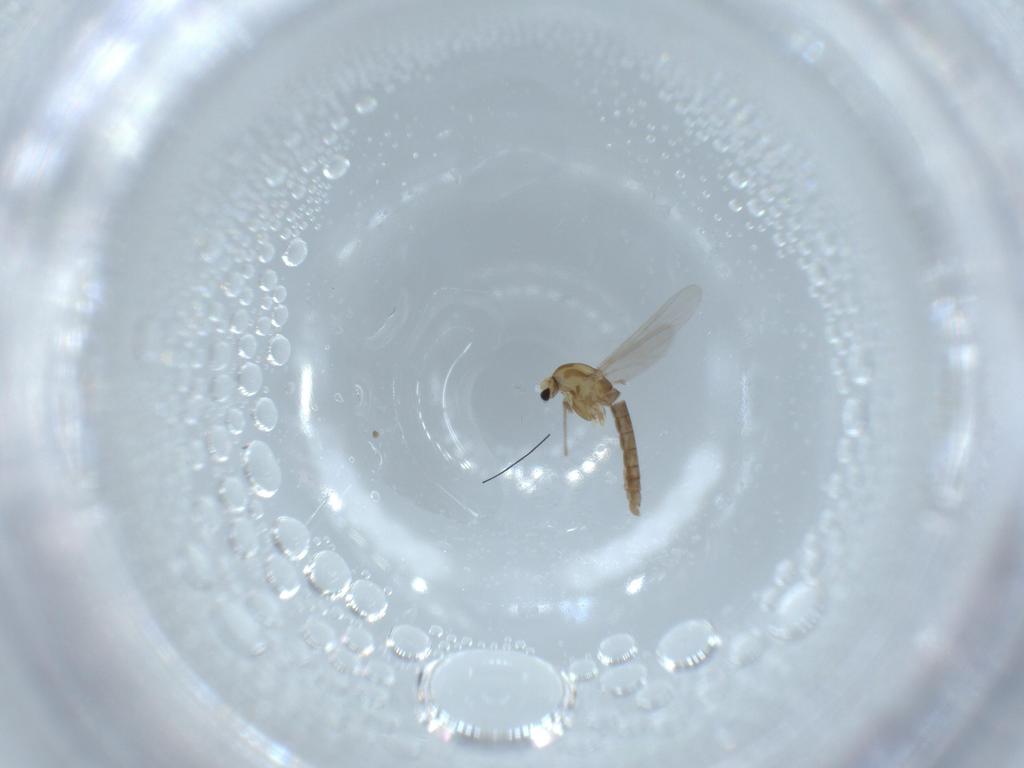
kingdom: Animalia
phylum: Arthropoda
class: Insecta
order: Diptera
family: Chironomidae
